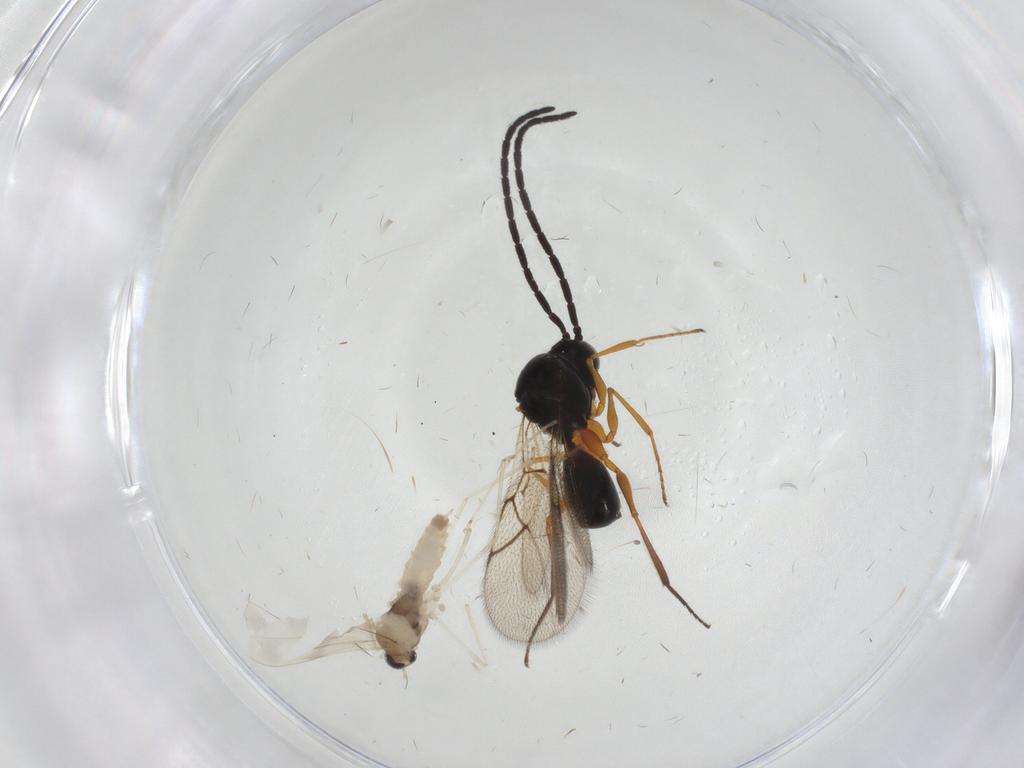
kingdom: Animalia
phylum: Arthropoda
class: Insecta
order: Diptera
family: Cecidomyiidae
